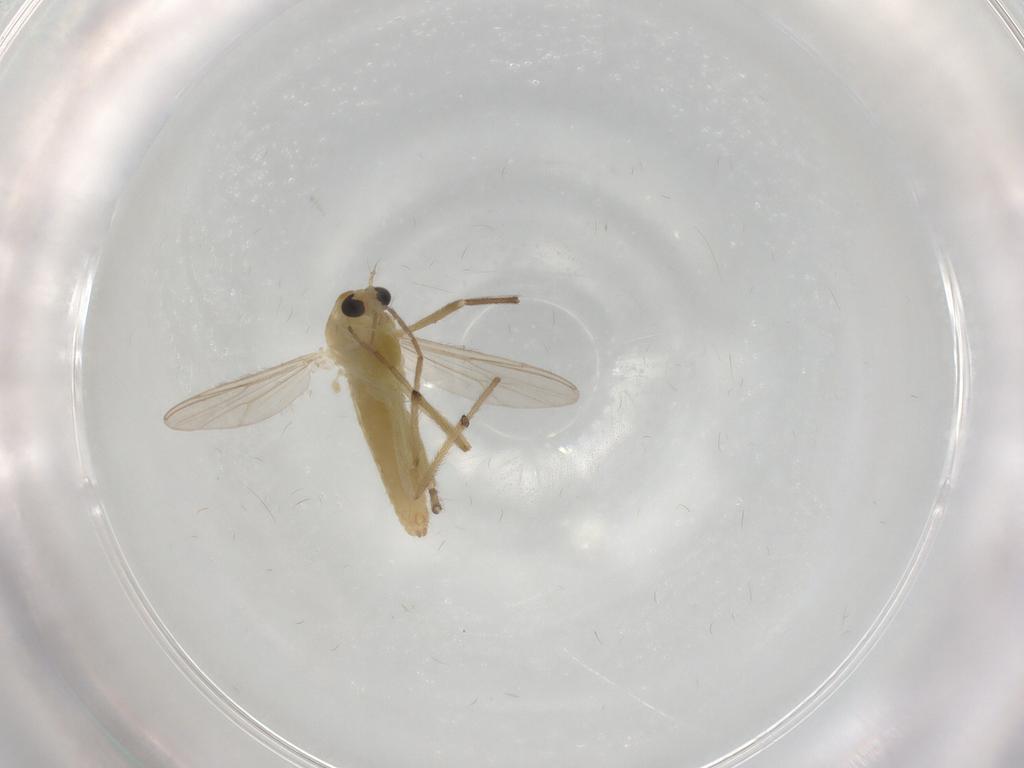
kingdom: Animalia
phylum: Arthropoda
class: Insecta
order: Diptera
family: Chironomidae
